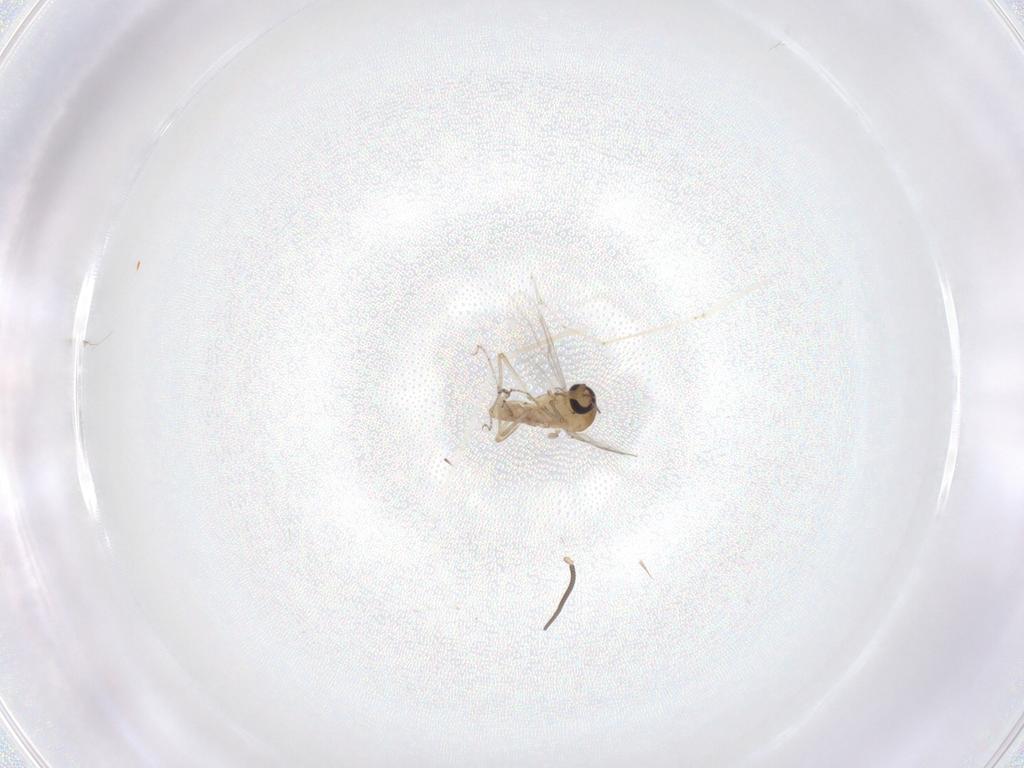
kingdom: Animalia
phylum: Arthropoda
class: Insecta
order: Diptera
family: Cecidomyiidae
